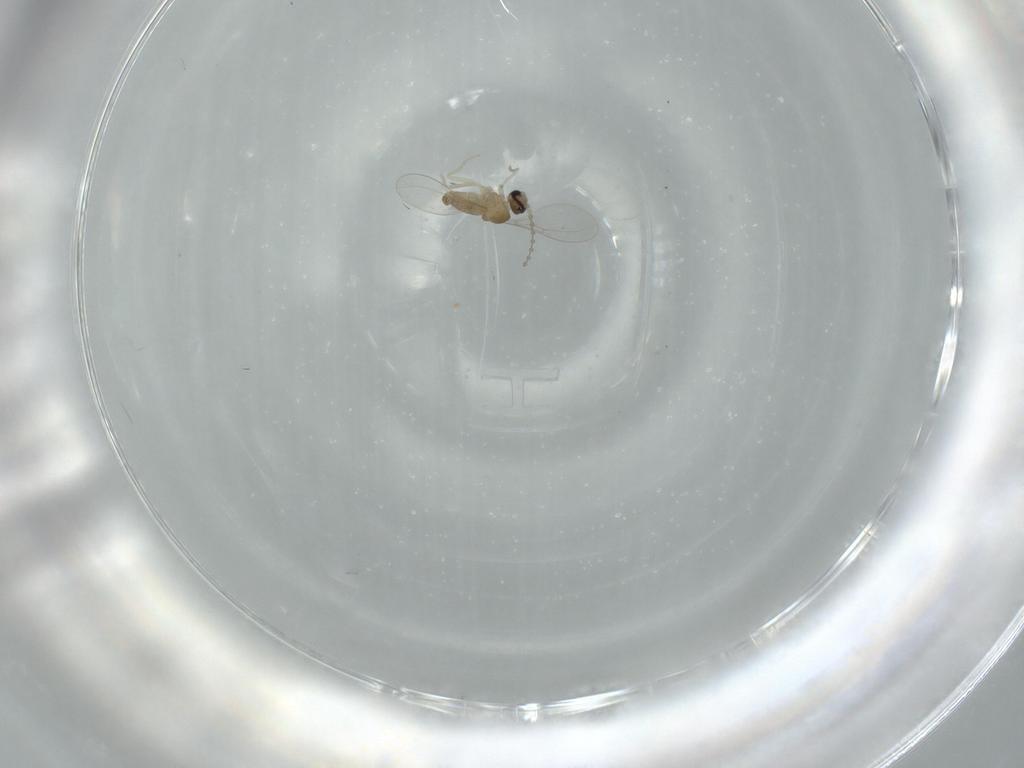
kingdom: Animalia
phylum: Arthropoda
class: Insecta
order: Diptera
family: Cecidomyiidae
